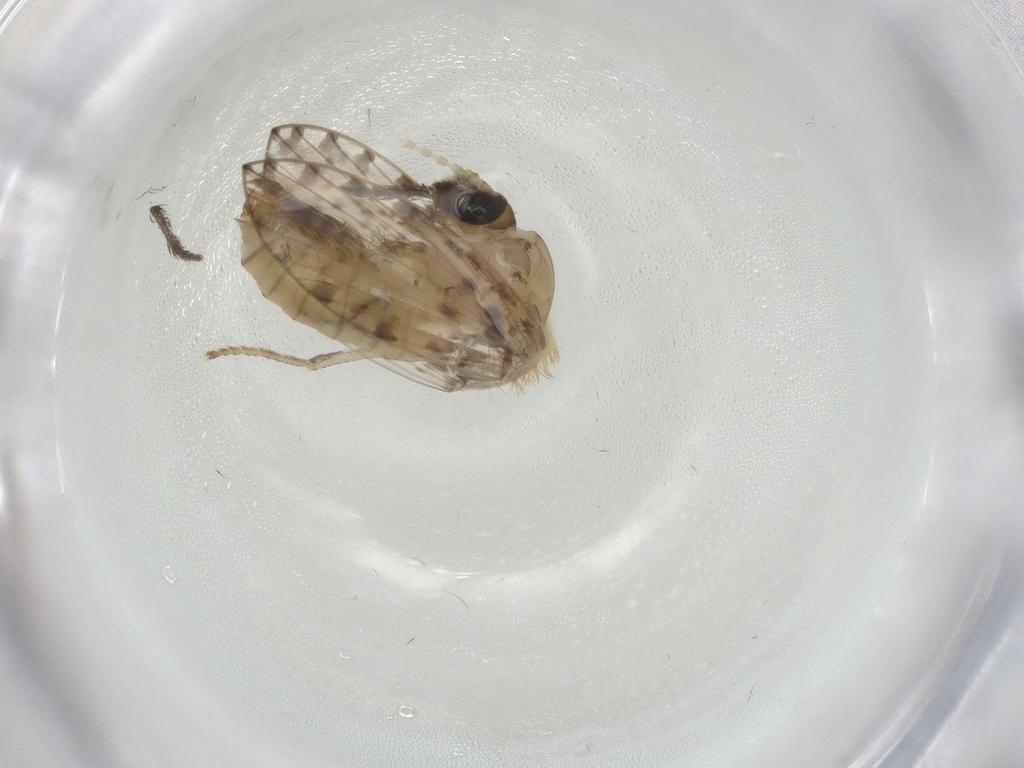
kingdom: Animalia
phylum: Arthropoda
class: Insecta
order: Diptera
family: Psychodidae
